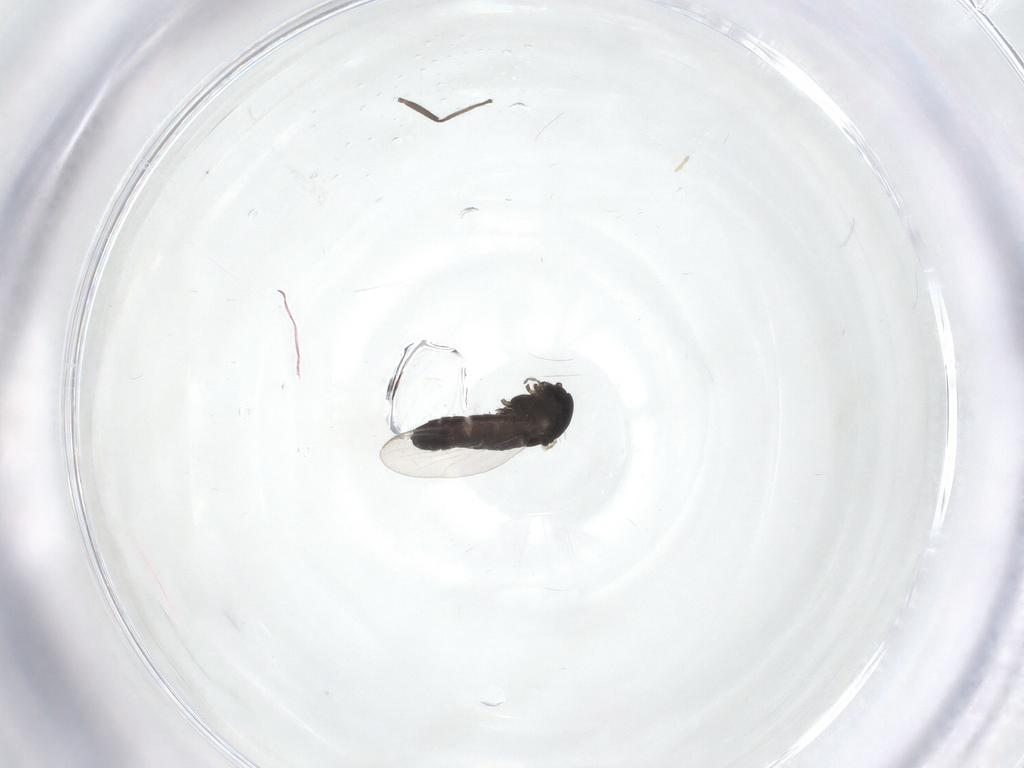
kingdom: Animalia
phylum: Arthropoda
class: Insecta
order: Diptera
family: Chironomidae
